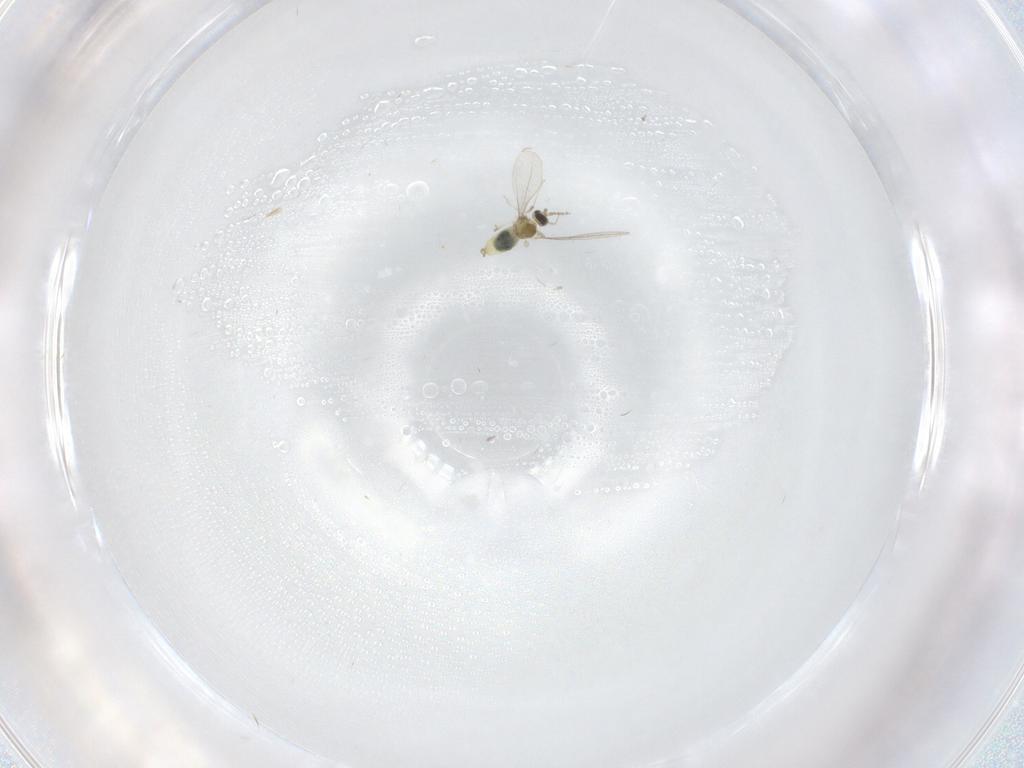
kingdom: Animalia
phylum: Arthropoda
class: Insecta
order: Diptera
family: Cecidomyiidae
